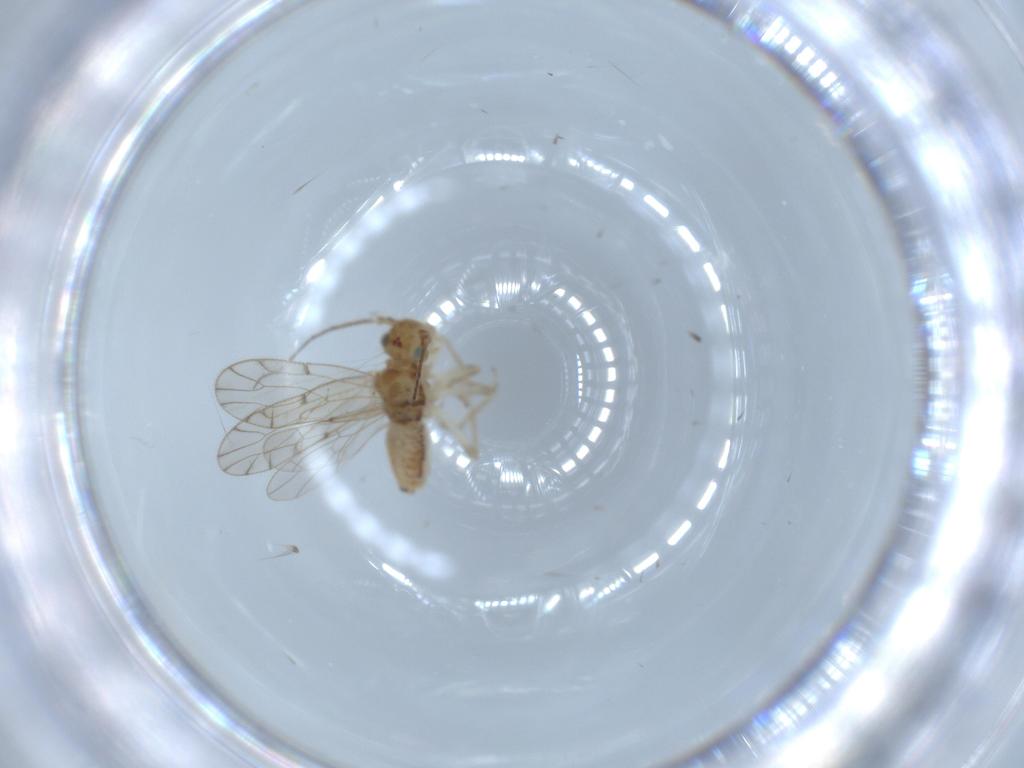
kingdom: Animalia
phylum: Arthropoda
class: Insecta
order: Psocodea
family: Ectopsocidae
